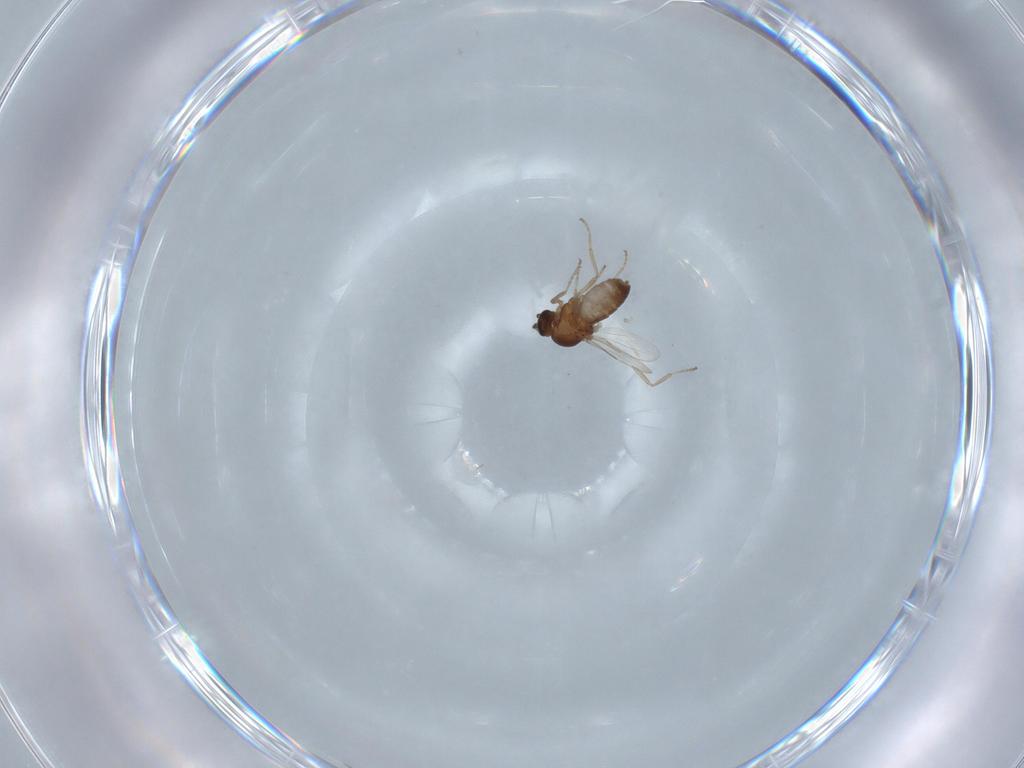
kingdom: Animalia
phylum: Arthropoda
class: Insecta
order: Diptera
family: Ceratopogonidae
